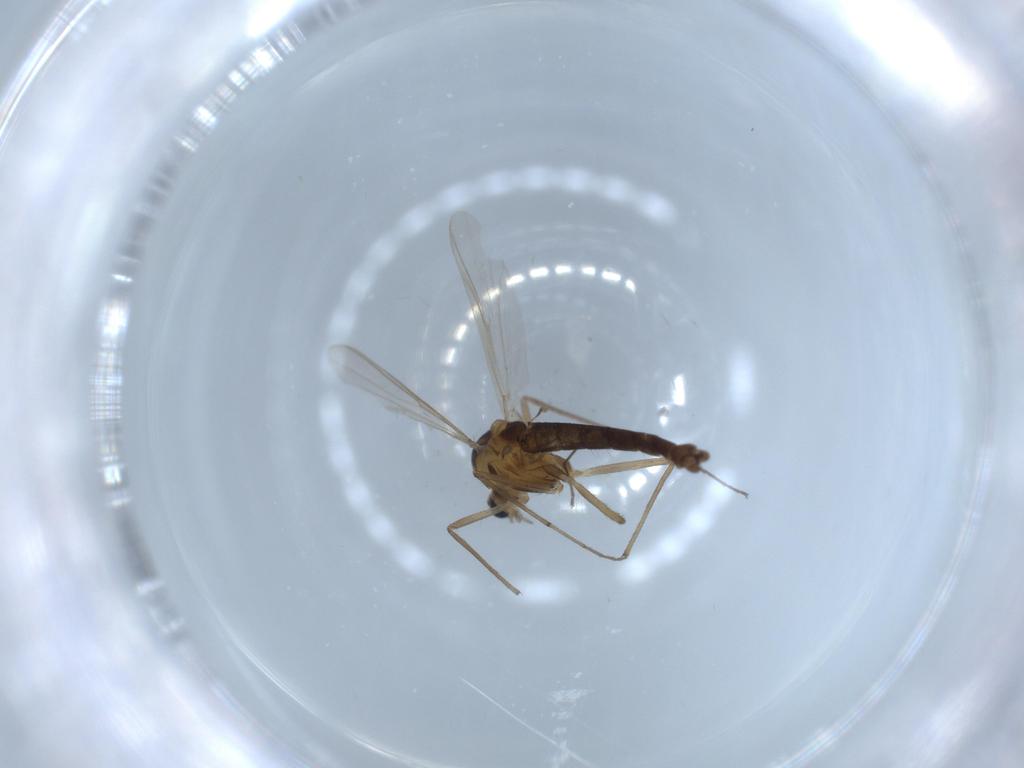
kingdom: Animalia
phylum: Arthropoda
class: Insecta
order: Diptera
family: Chironomidae
